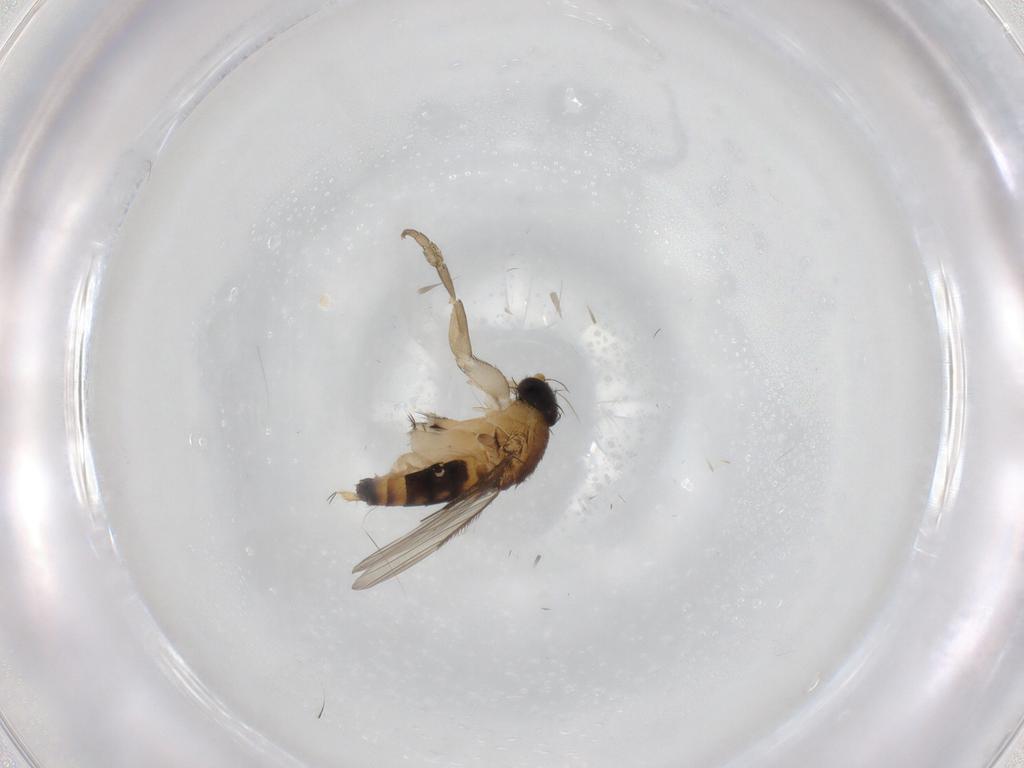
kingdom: Animalia
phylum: Arthropoda
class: Insecta
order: Diptera
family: Phoridae
